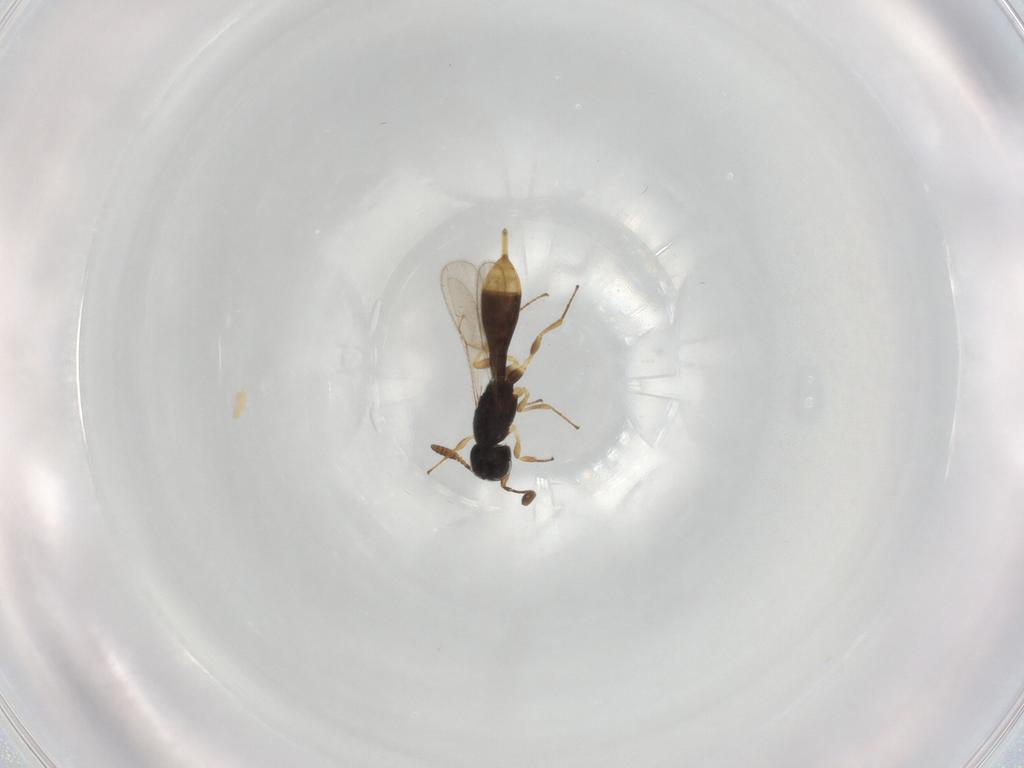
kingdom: Animalia
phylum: Arthropoda
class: Insecta
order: Hymenoptera
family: Scelionidae
